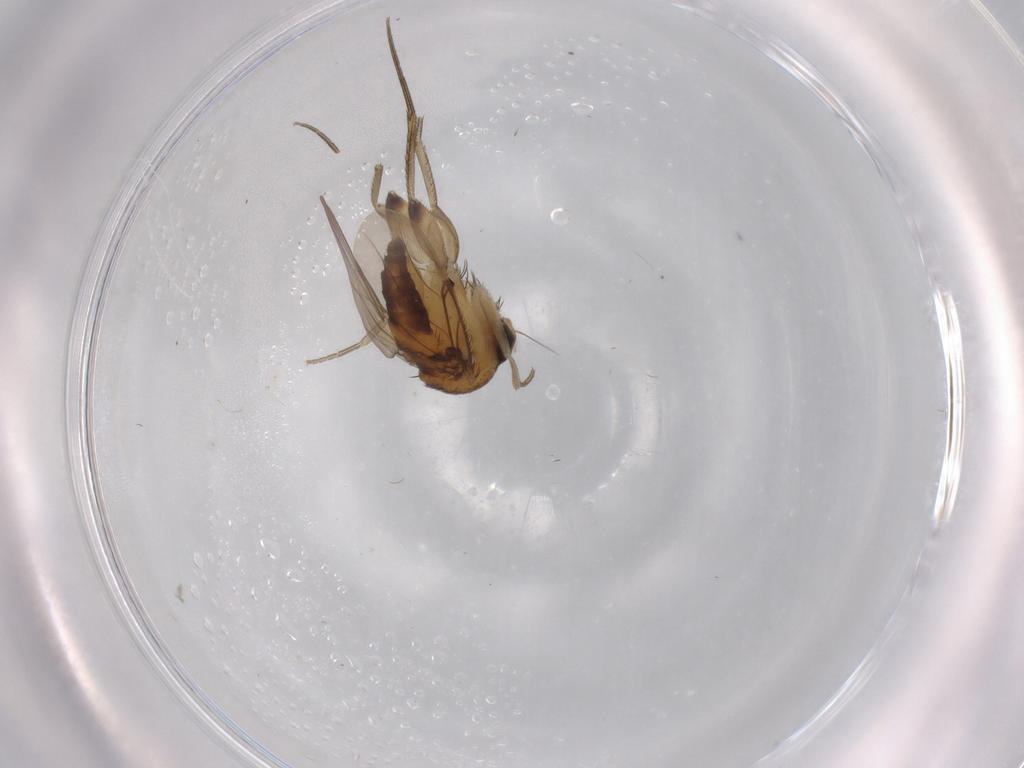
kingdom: Animalia
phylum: Arthropoda
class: Insecta
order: Diptera
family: Phoridae
